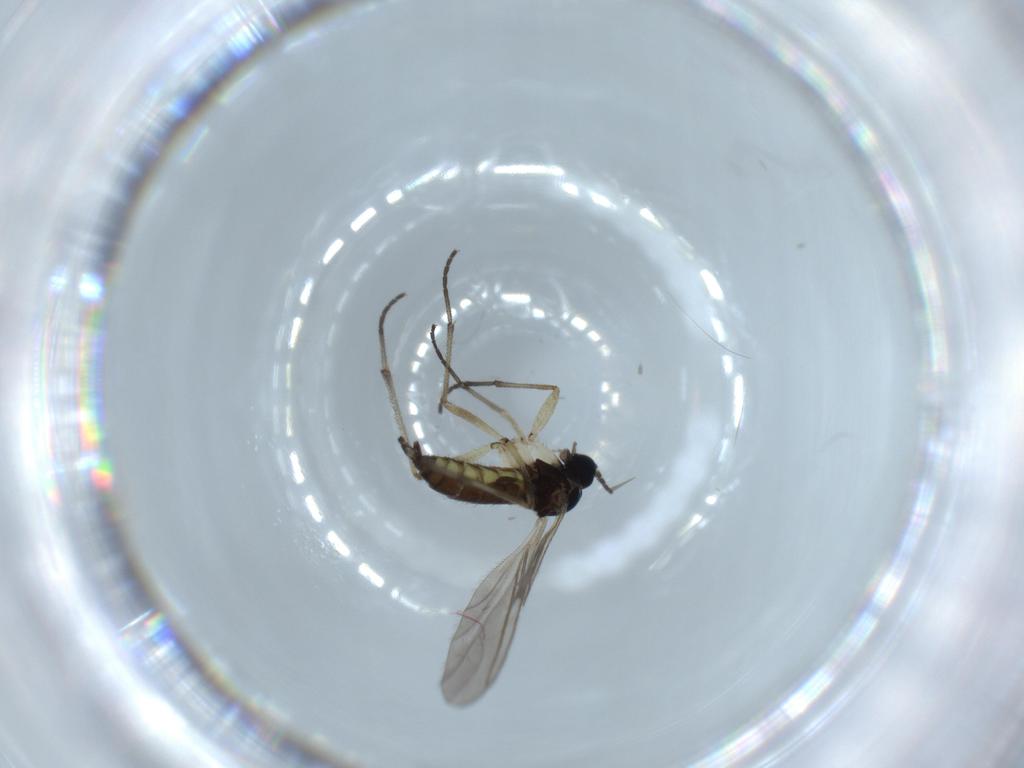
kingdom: Animalia
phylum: Arthropoda
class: Insecta
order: Diptera
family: Sciaridae
